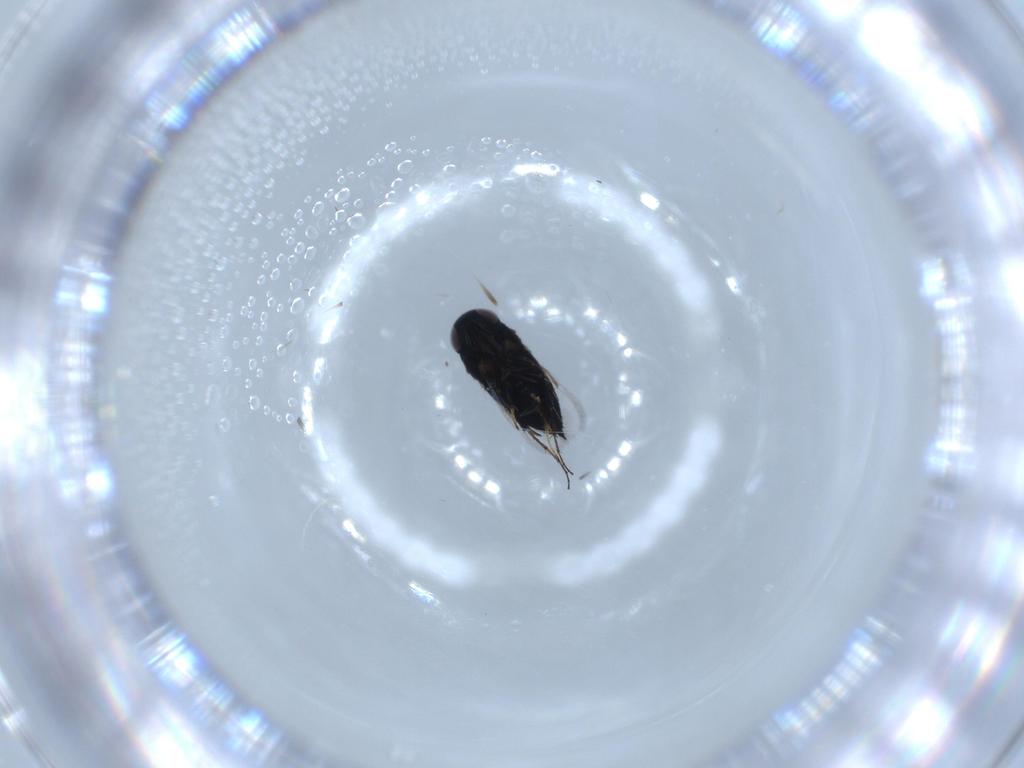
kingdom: Animalia
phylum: Arthropoda
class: Insecta
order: Hymenoptera
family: Signiphoridae
